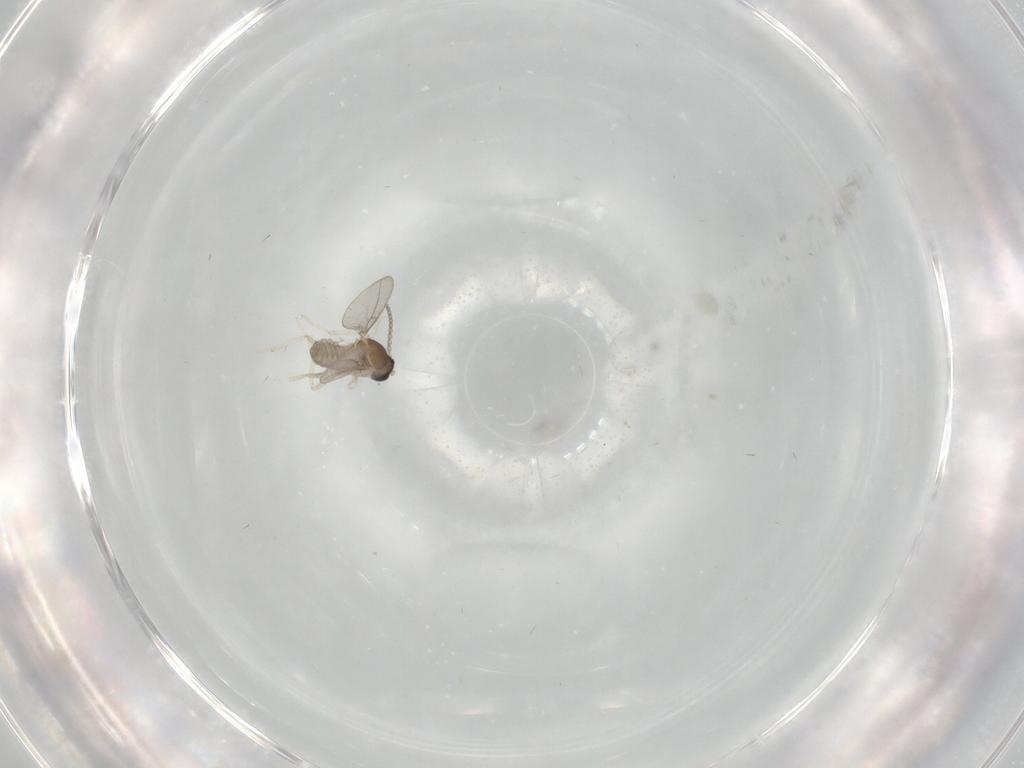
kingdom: Animalia
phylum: Arthropoda
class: Insecta
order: Diptera
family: Cecidomyiidae
